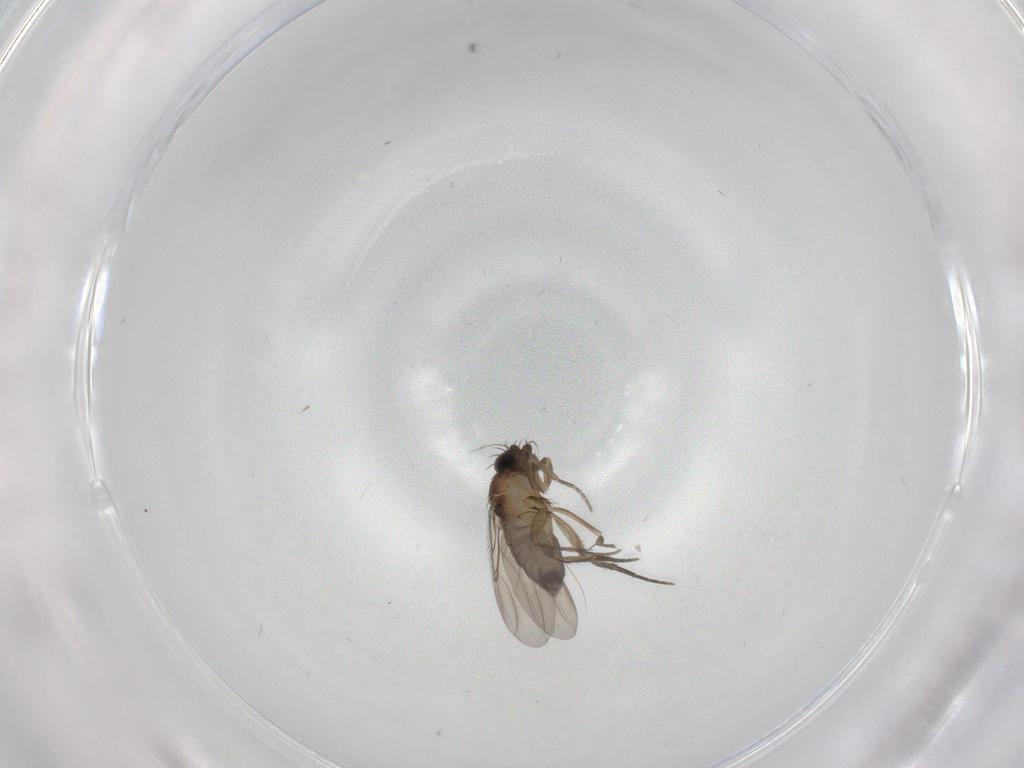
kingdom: Animalia
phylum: Arthropoda
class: Insecta
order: Diptera
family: Phoridae
